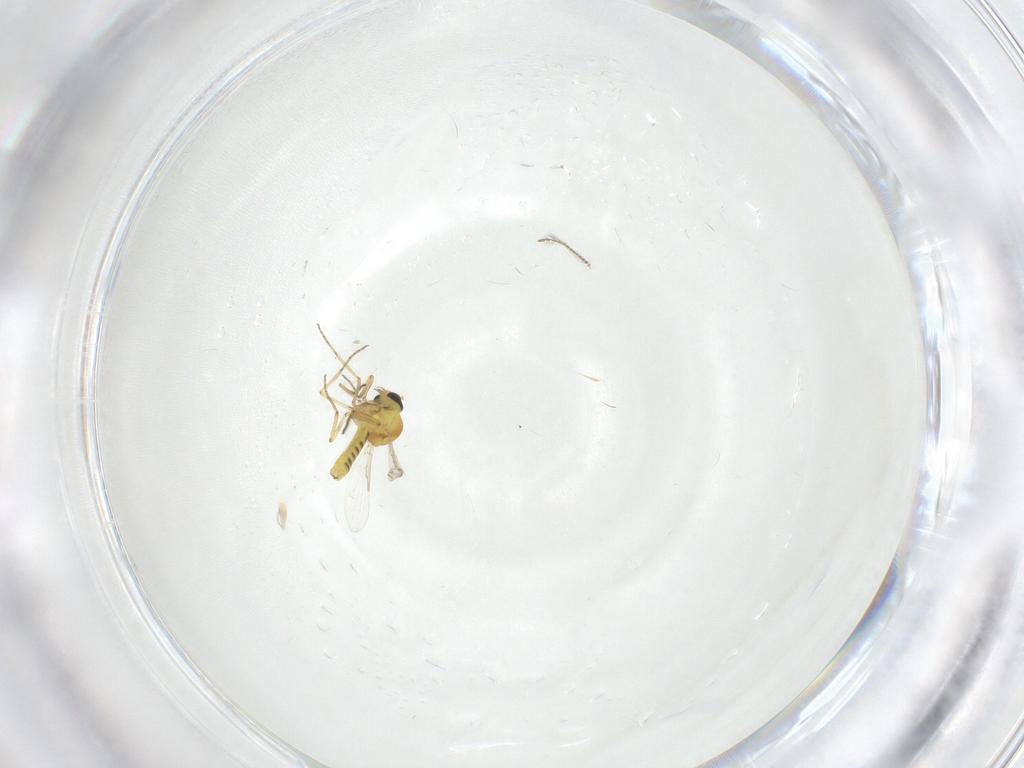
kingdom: Animalia
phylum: Arthropoda
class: Insecta
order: Diptera
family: Ceratopogonidae
